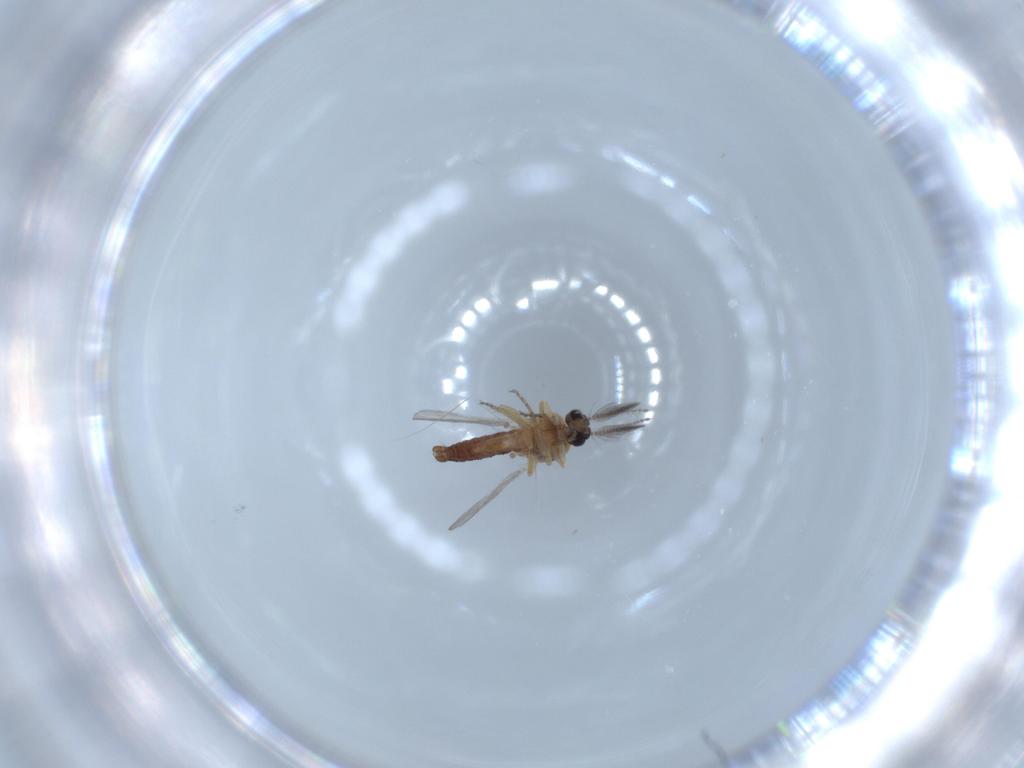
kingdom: Animalia
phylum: Arthropoda
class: Insecta
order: Diptera
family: Ceratopogonidae
